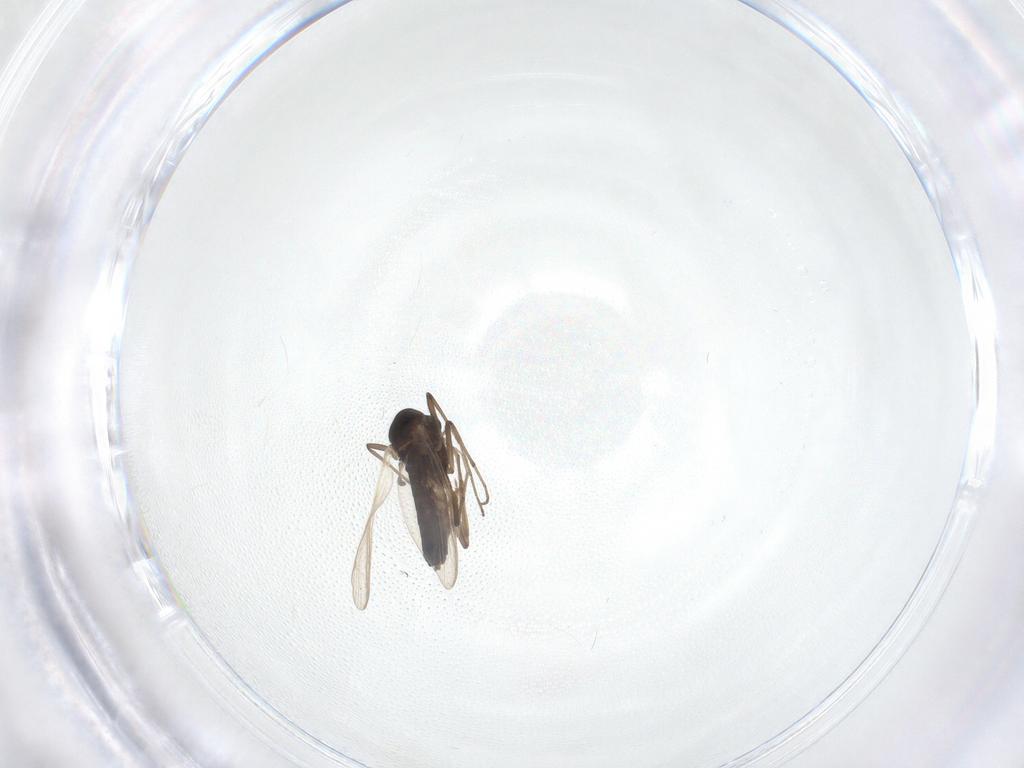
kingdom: Animalia
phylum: Arthropoda
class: Insecta
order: Diptera
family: Chironomidae
